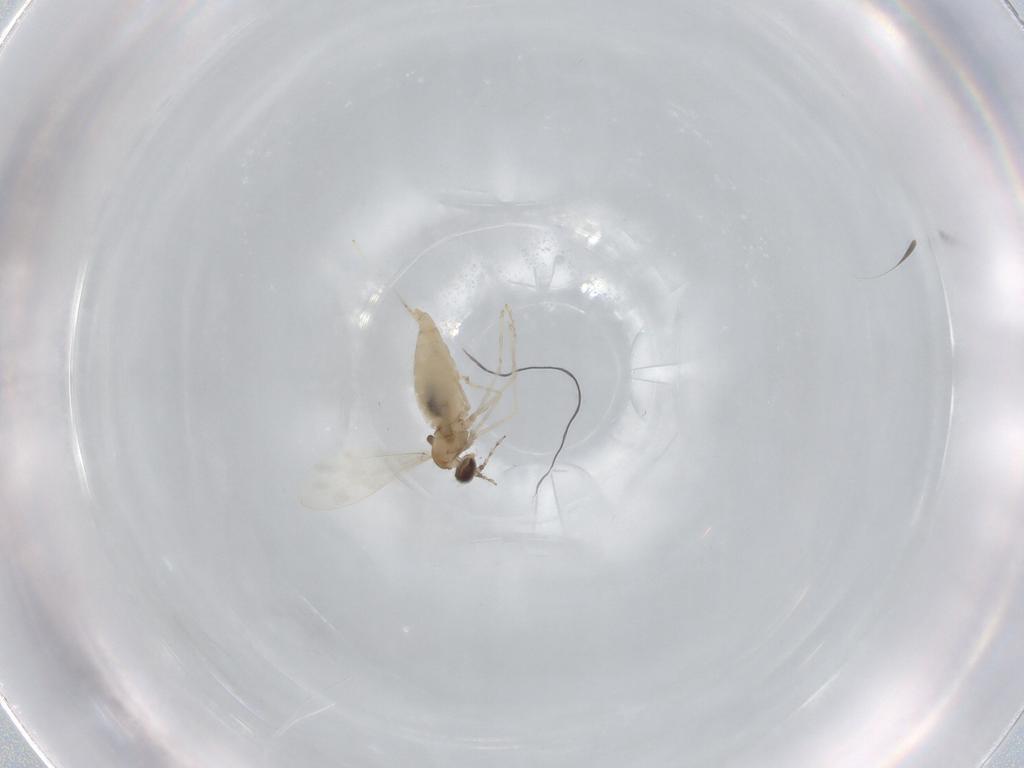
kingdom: Animalia
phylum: Arthropoda
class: Insecta
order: Diptera
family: Cecidomyiidae
